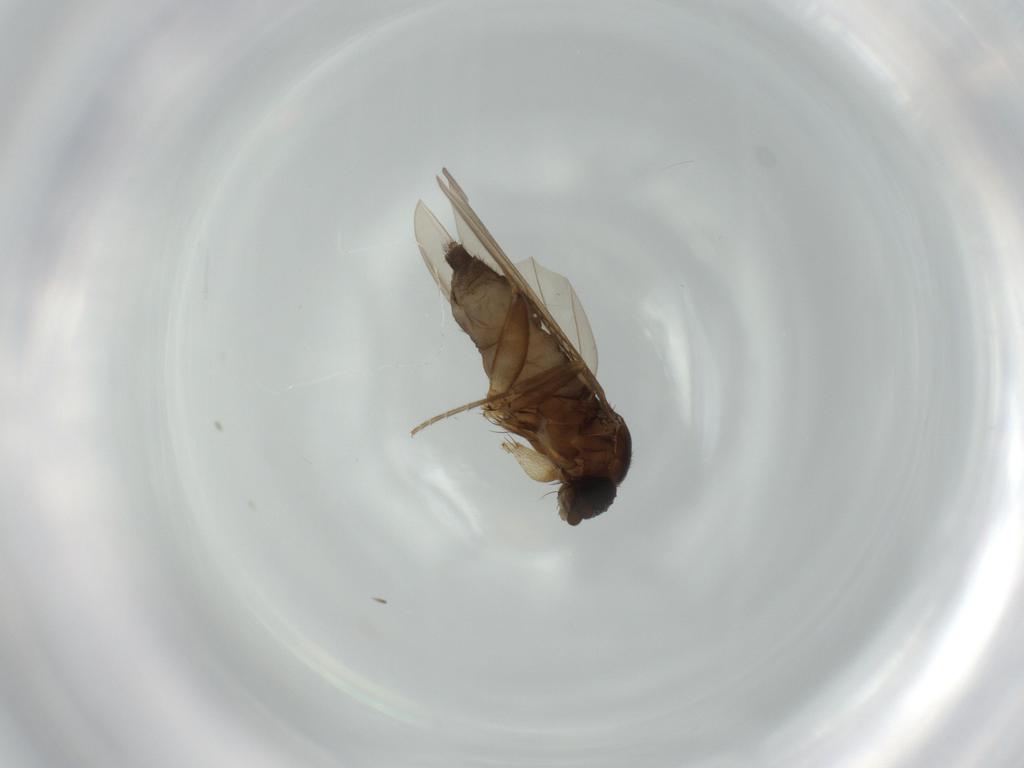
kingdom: Animalia
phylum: Arthropoda
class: Insecta
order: Diptera
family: Phoridae
